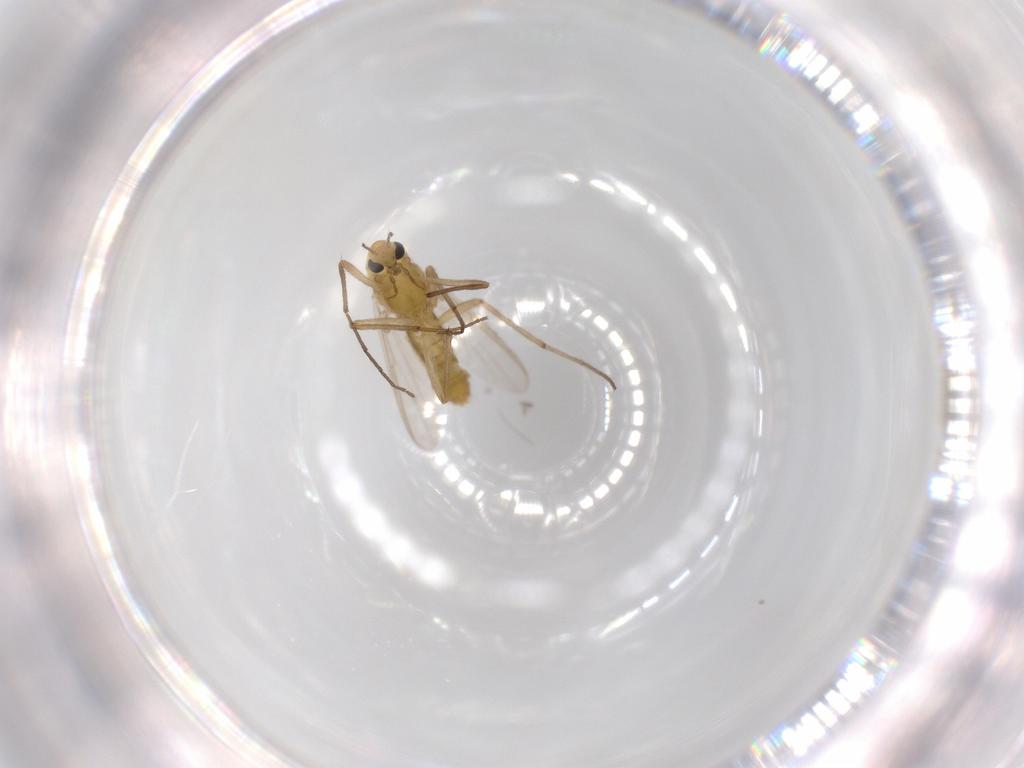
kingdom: Animalia
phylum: Arthropoda
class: Insecta
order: Diptera
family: Chironomidae
